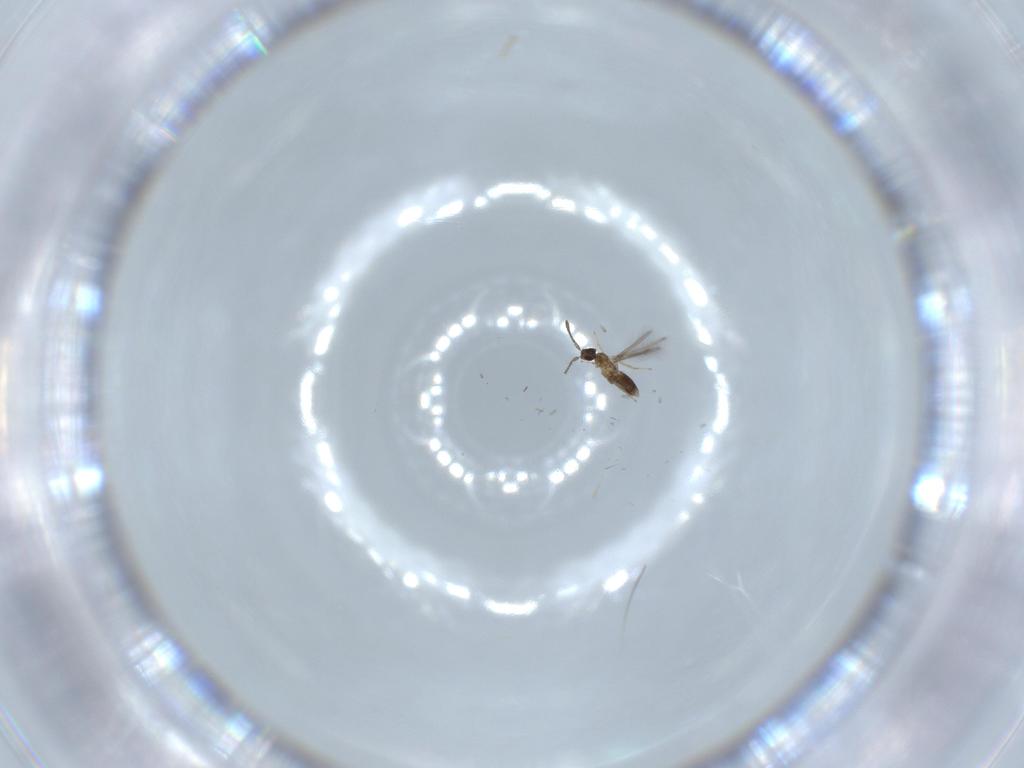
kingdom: Animalia
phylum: Arthropoda
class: Insecta
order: Hymenoptera
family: Mymaridae
